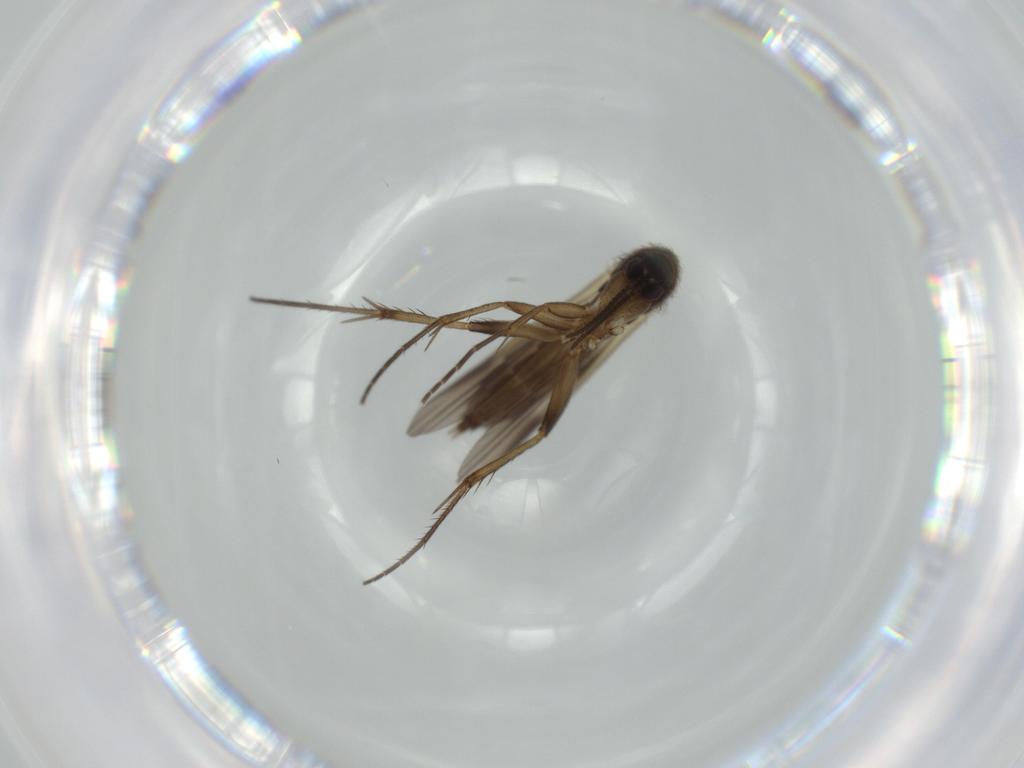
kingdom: Animalia
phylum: Arthropoda
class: Insecta
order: Diptera
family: Mycetophilidae
